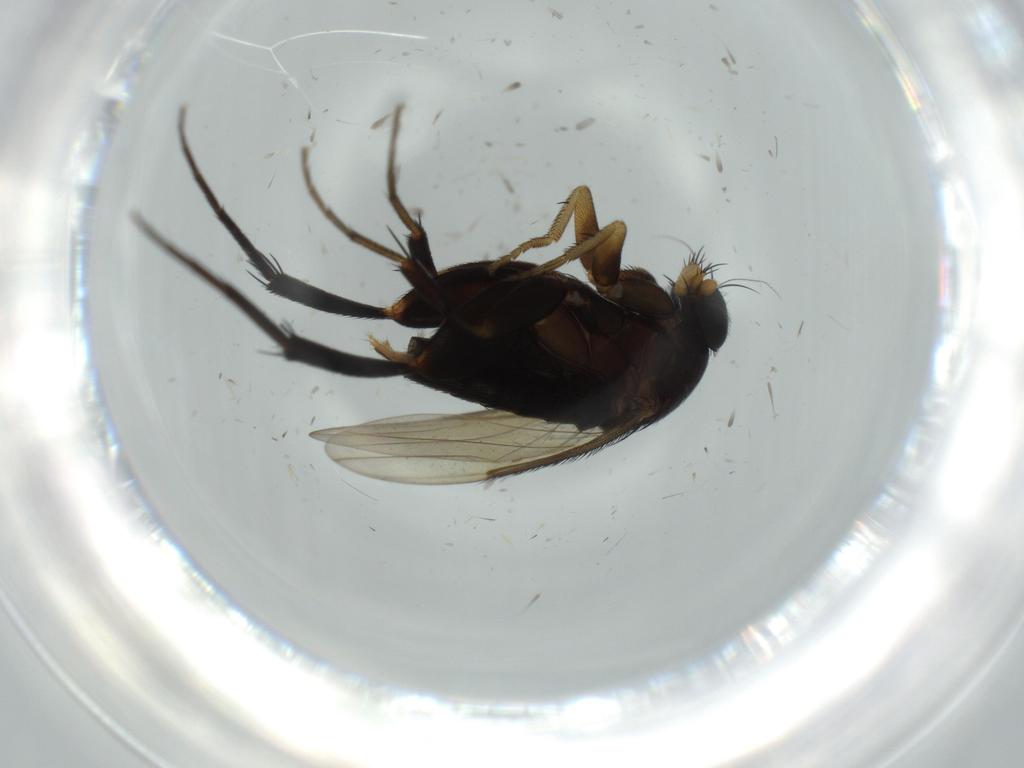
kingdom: Animalia
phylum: Arthropoda
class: Insecta
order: Diptera
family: Phoridae
